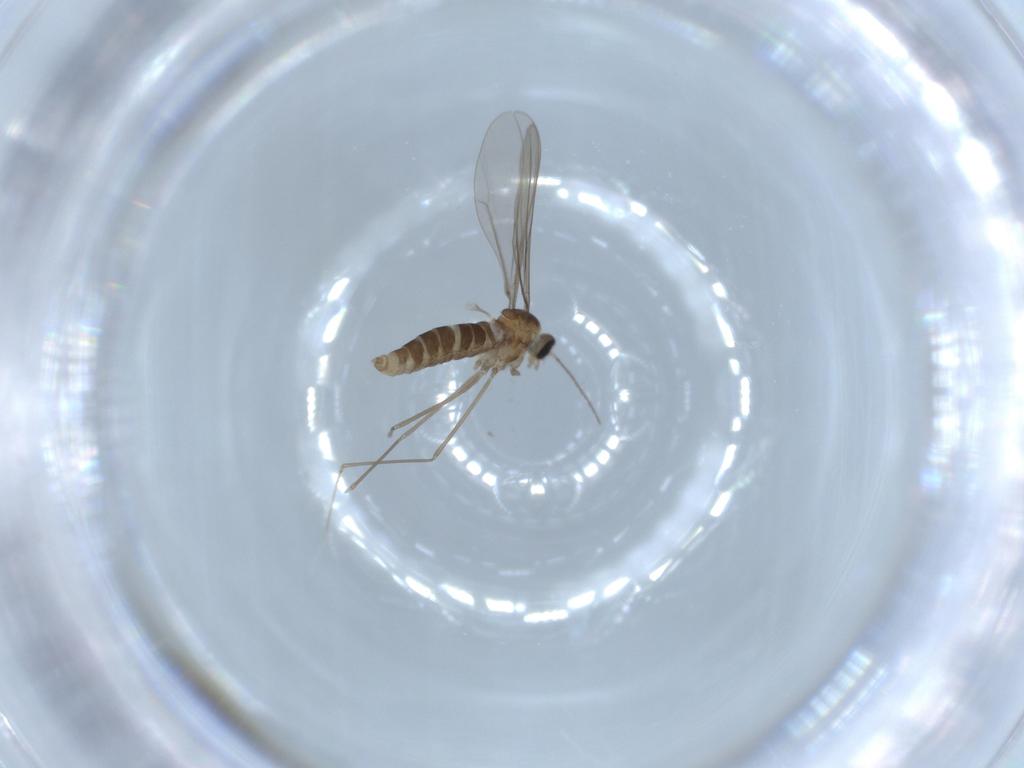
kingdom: Animalia
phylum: Arthropoda
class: Insecta
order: Diptera
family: Cecidomyiidae
